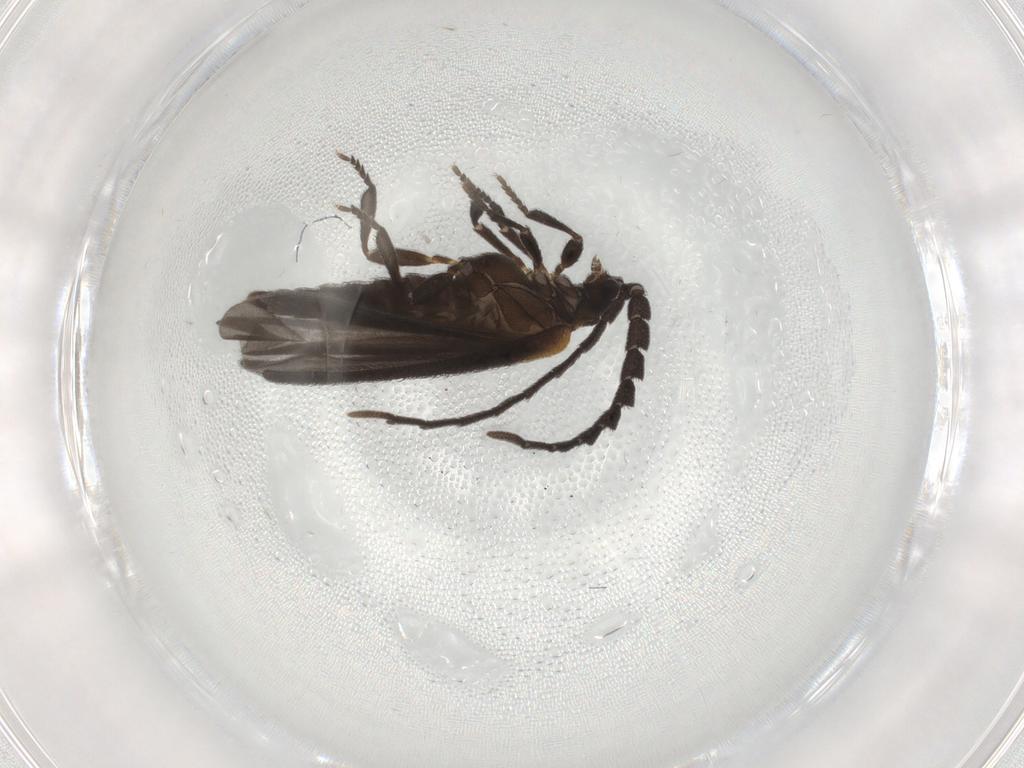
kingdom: Animalia
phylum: Arthropoda
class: Insecta
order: Coleoptera
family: Lycidae
